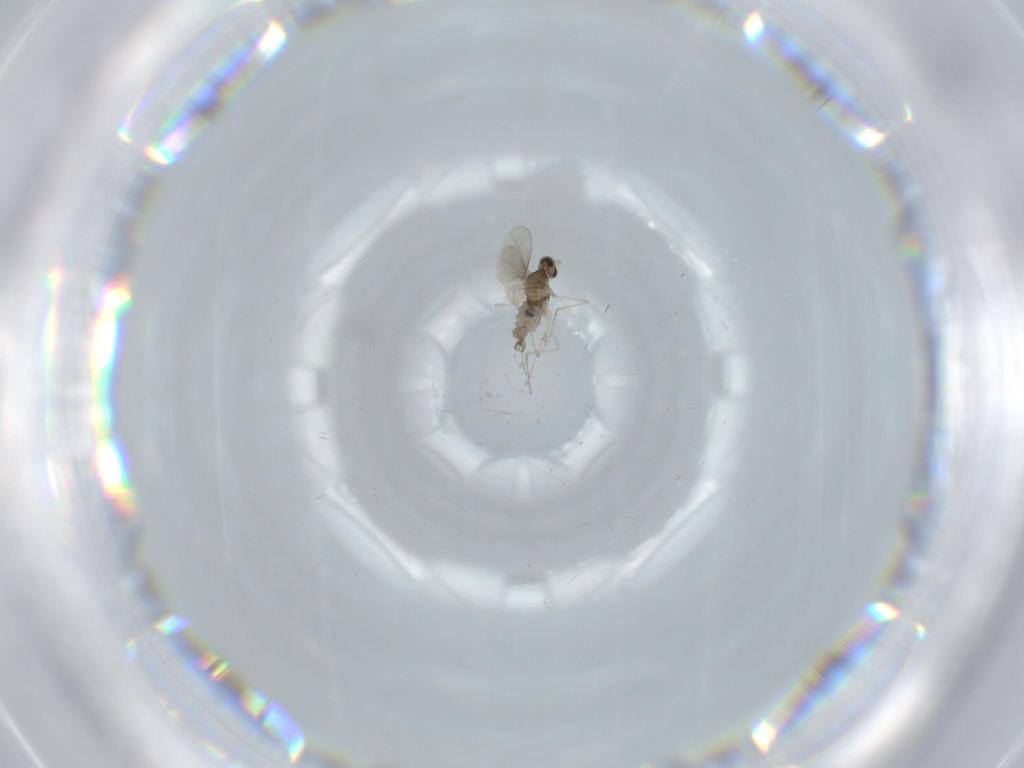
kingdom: Animalia
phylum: Arthropoda
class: Insecta
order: Diptera
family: Cecidomyiidae
